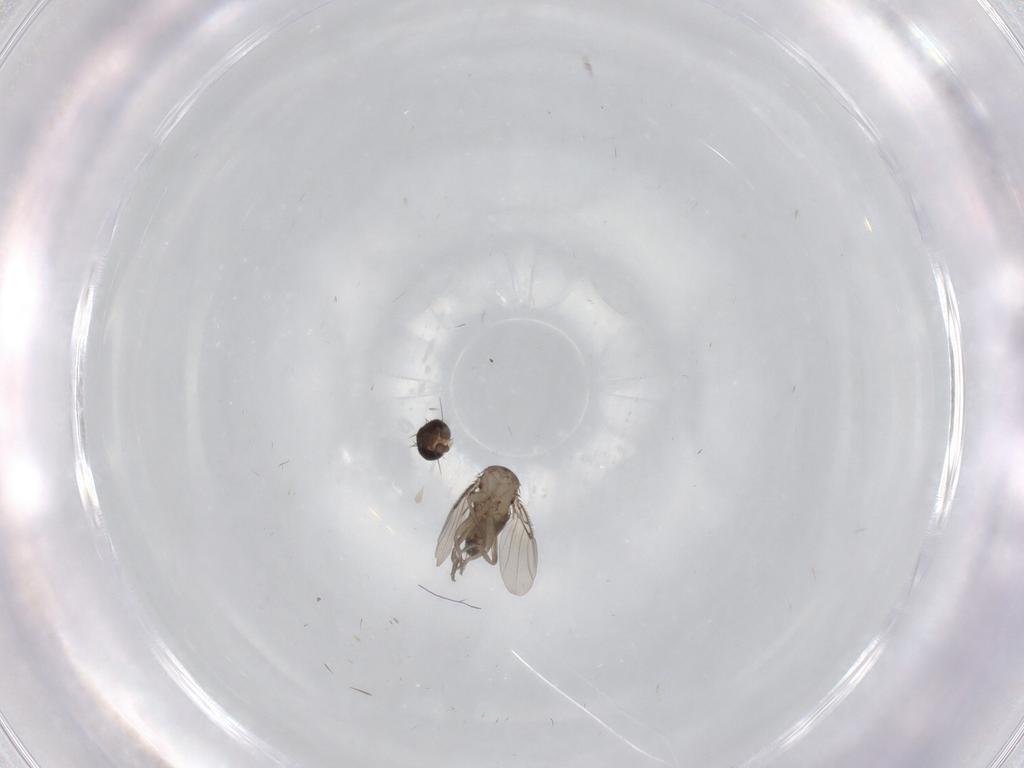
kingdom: Animalia
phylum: Arthropoda
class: Insecta
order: Diptera
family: Phoridae
